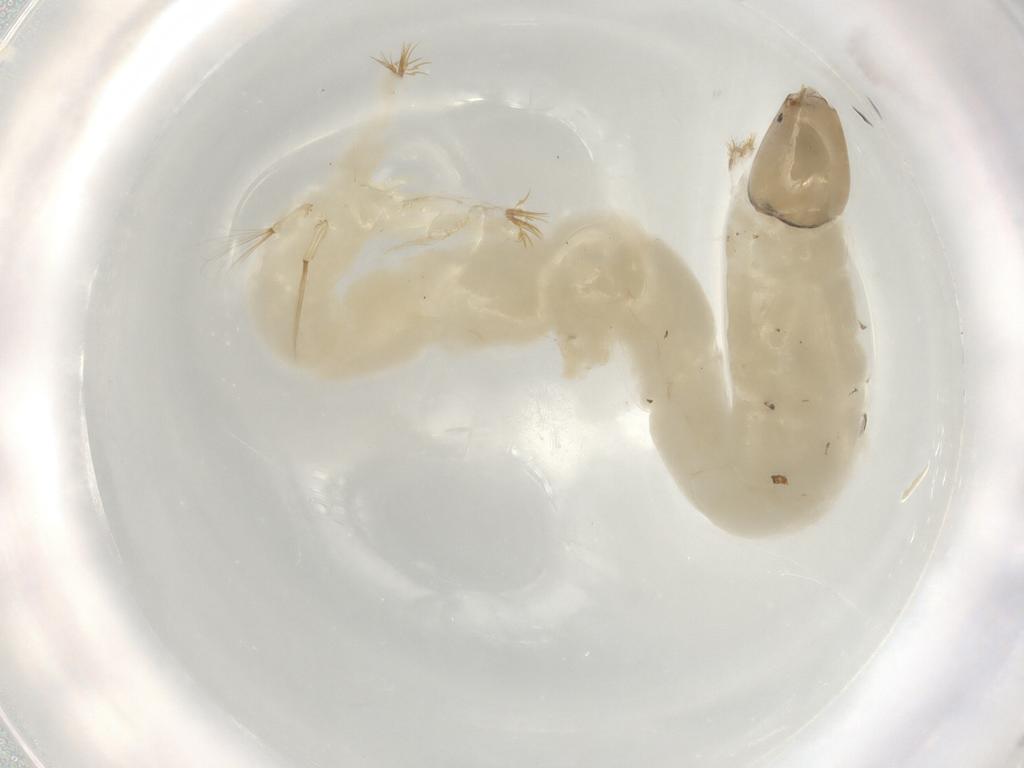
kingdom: Animalia
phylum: Arthropoda
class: Insecta
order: Diptera
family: Chironomidae
